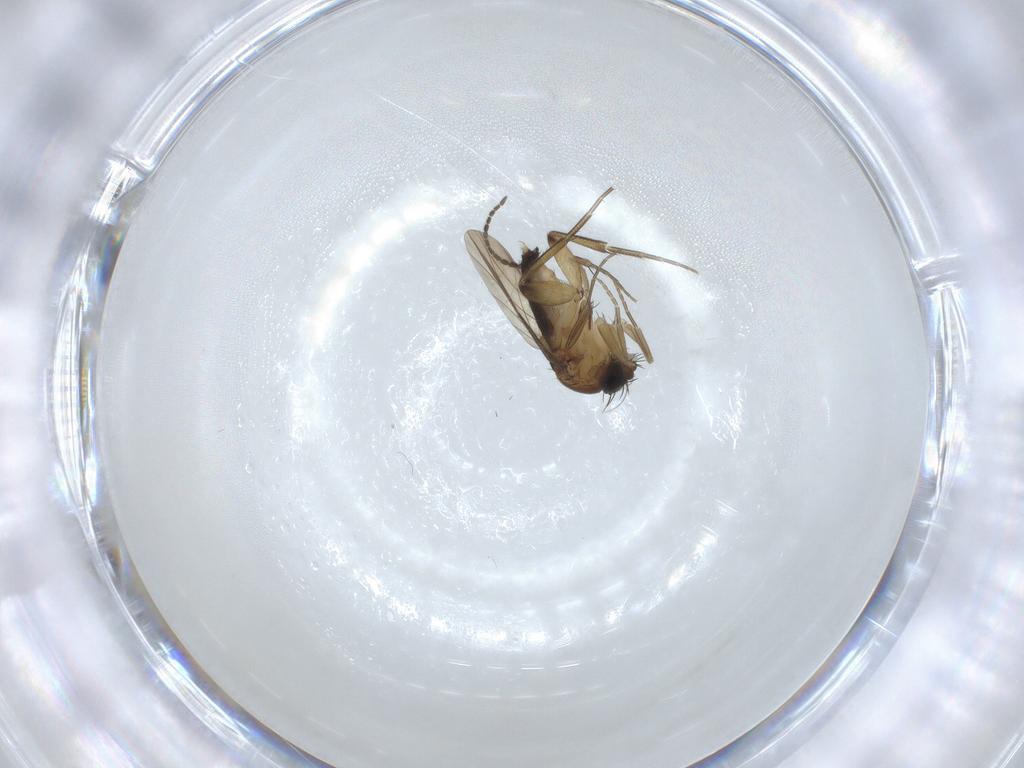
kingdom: Animalia
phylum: Arthropoda
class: Insecta
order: Diptera
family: Phoridae
